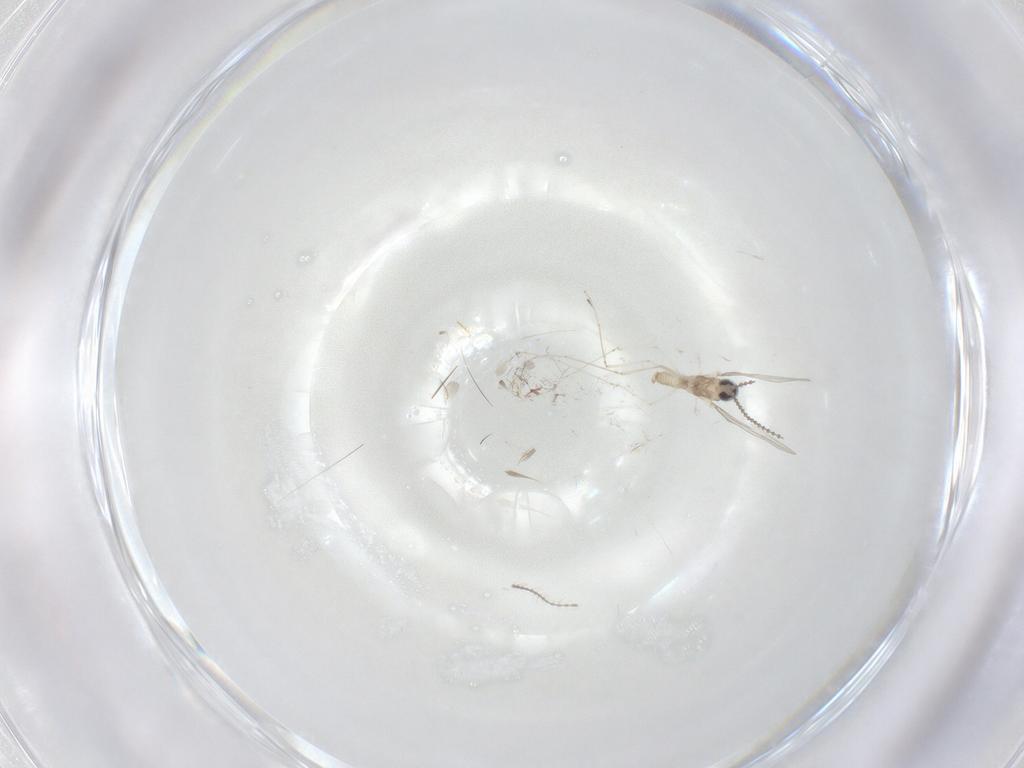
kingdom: Animalia
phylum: Arthropoda
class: Insecta
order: Diptera
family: Cecidomyiidae
